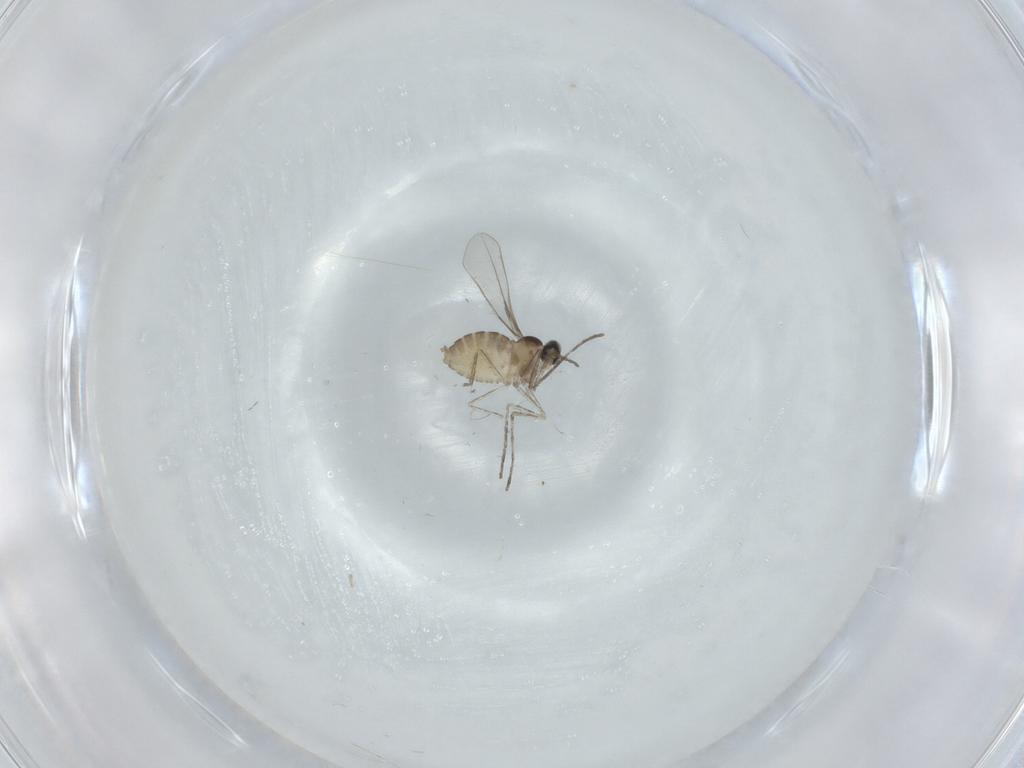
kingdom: Animalia
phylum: Arthropoda
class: Insecta
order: Diptera
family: Cecidomyiidae
